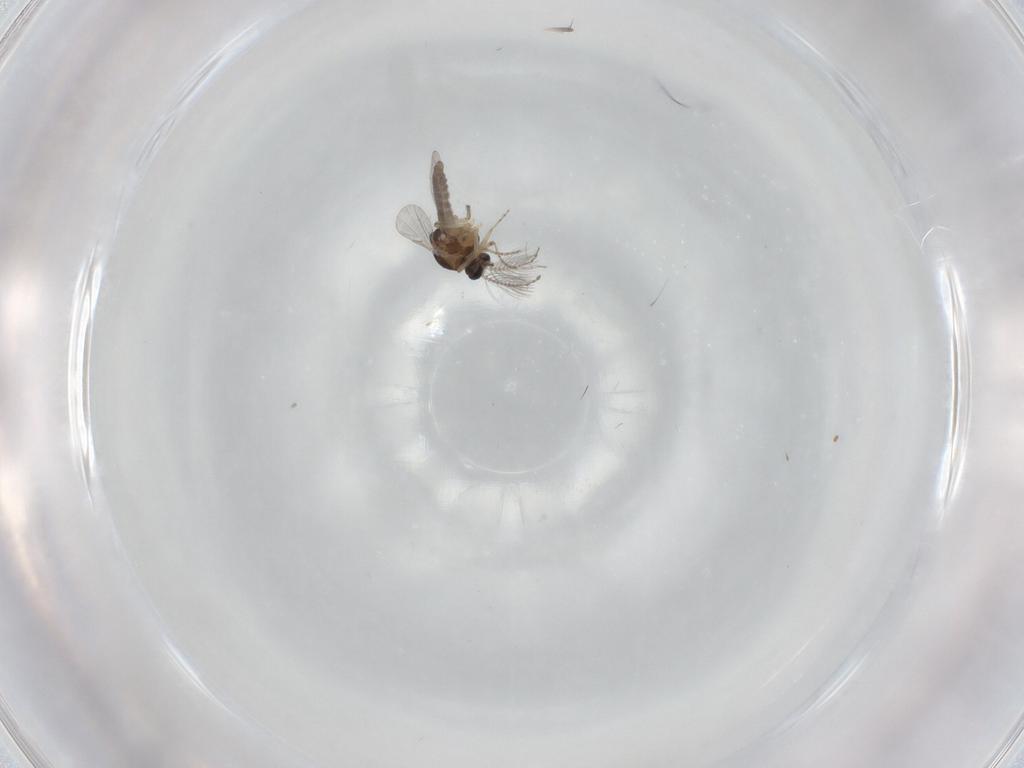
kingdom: Animalia
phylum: Arthropoda
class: Insecta
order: Diptera
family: Ceratopogonidae
